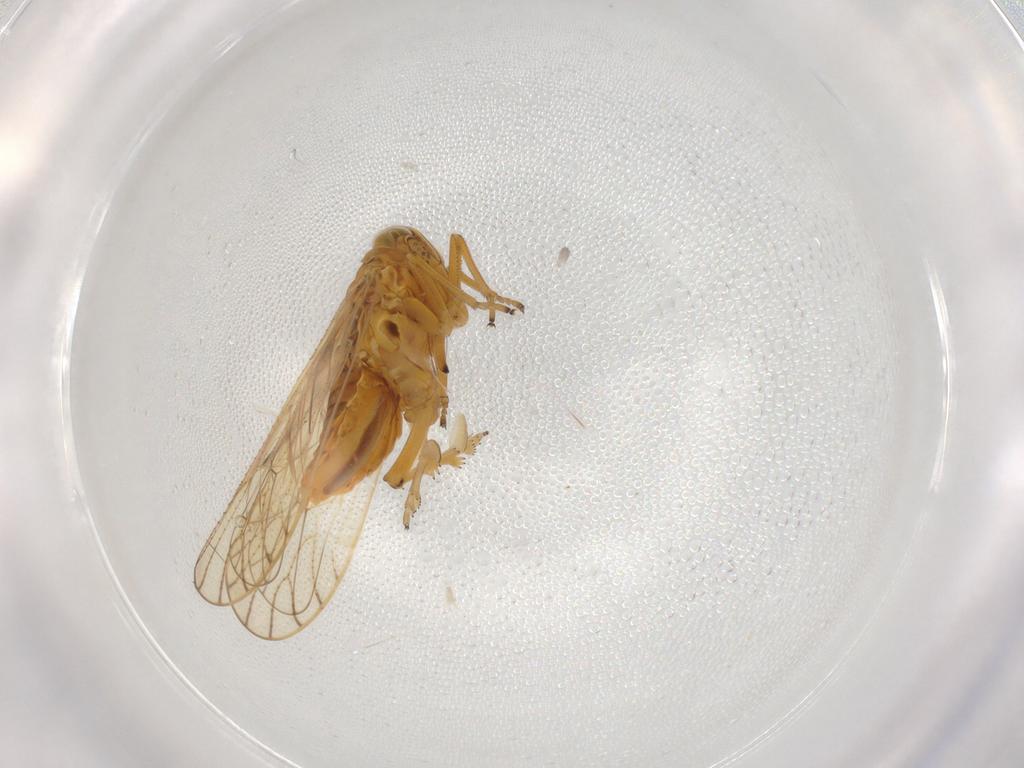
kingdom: Animalia
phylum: Arthropoda
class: Insecta
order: Hemiptera
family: Delphacidae
